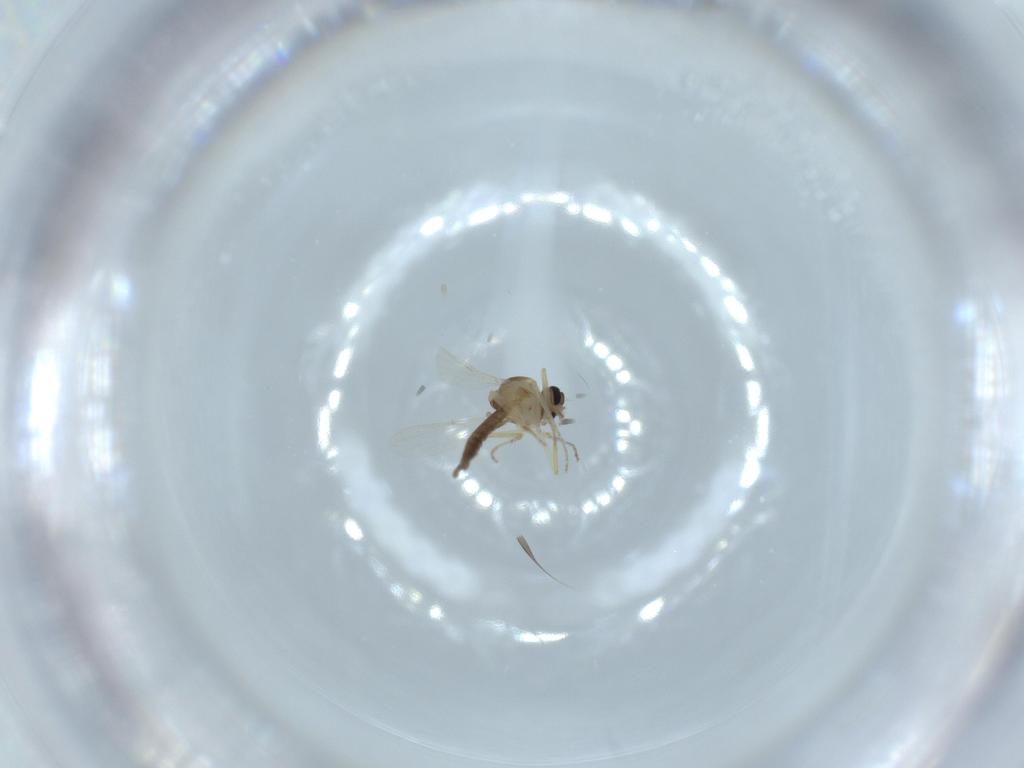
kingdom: Animalia
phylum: Arthropoda
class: Insecta
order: Diptera
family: Ceratopogonidae
